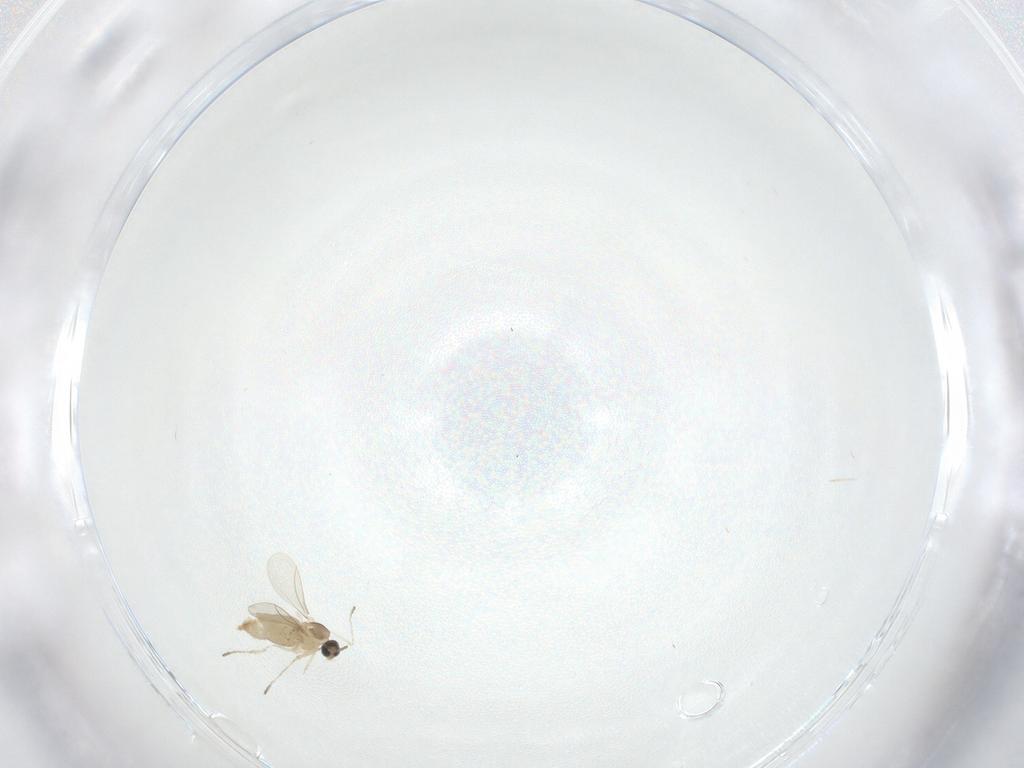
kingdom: Animalia
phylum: Arthropoda
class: Insecta
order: Diptera
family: Cecidomyiidae
